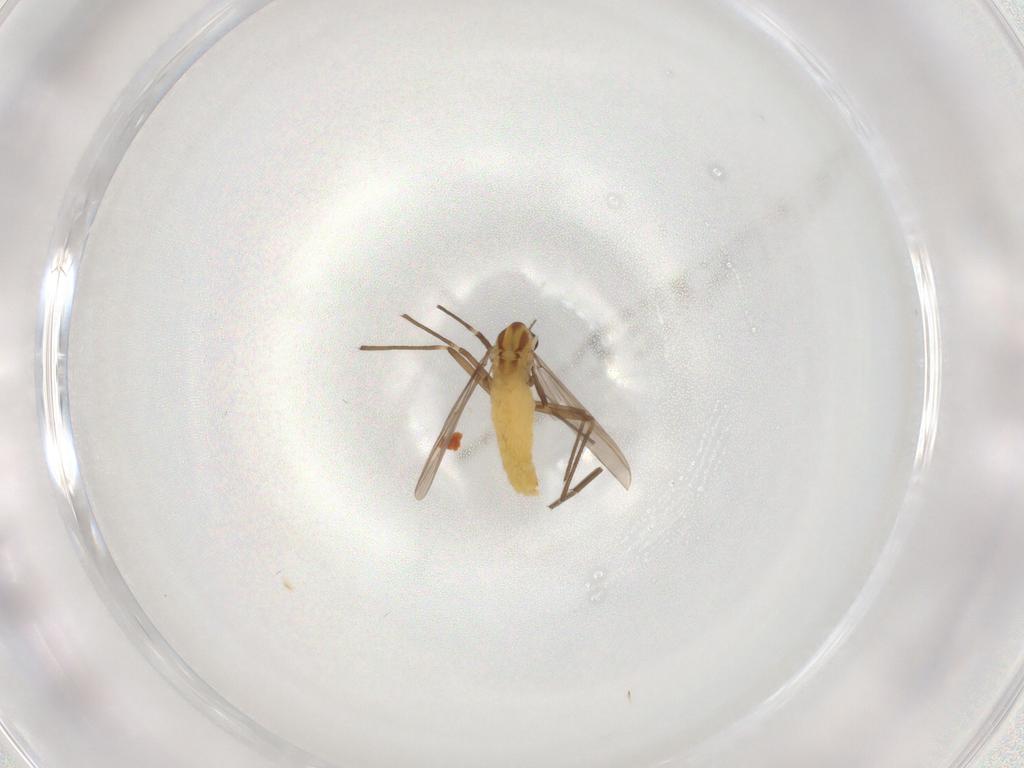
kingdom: Animalia
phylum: Arthropoda
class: Insecta
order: Diptera
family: Chironomidae
